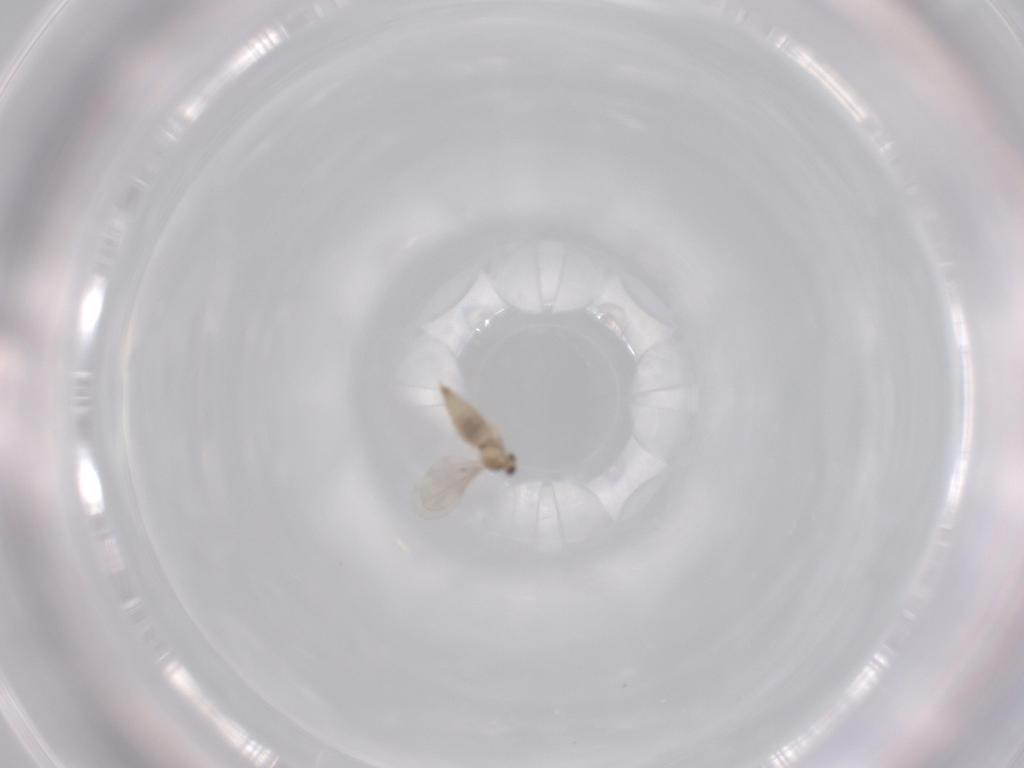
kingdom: Animalia
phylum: Arthropoda
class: Insecta
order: Diptera
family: Cecidomyiidae
